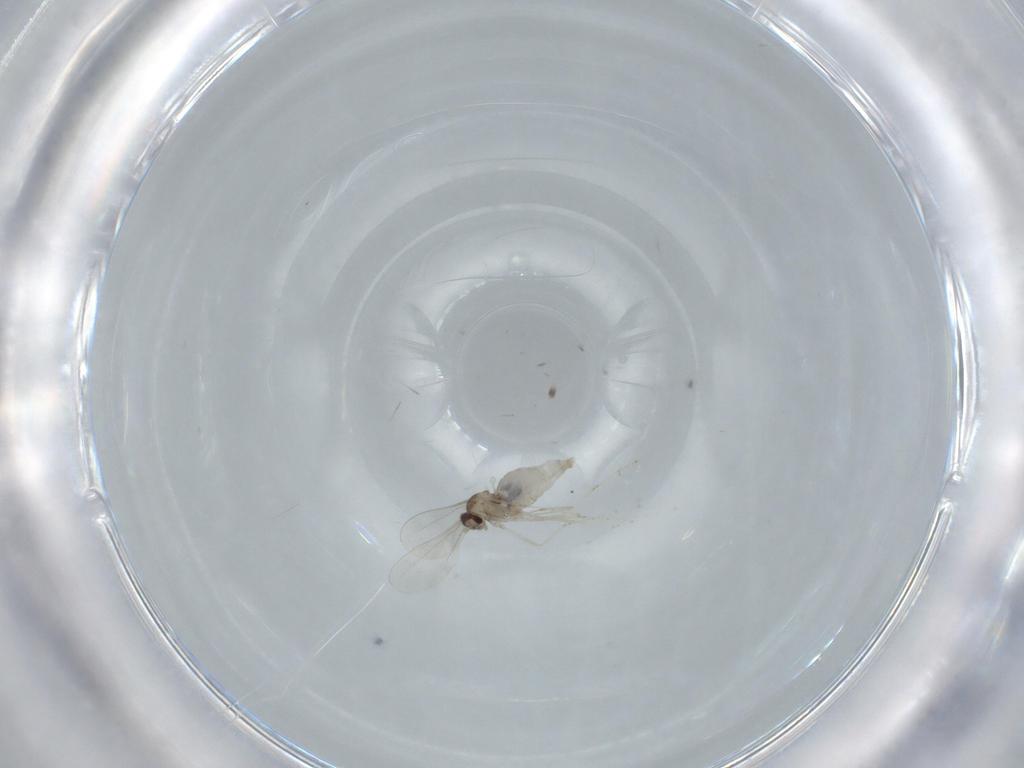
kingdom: Animalia
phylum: Arthropoda
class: Insecta
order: Diptera
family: Cecidomyiidae
